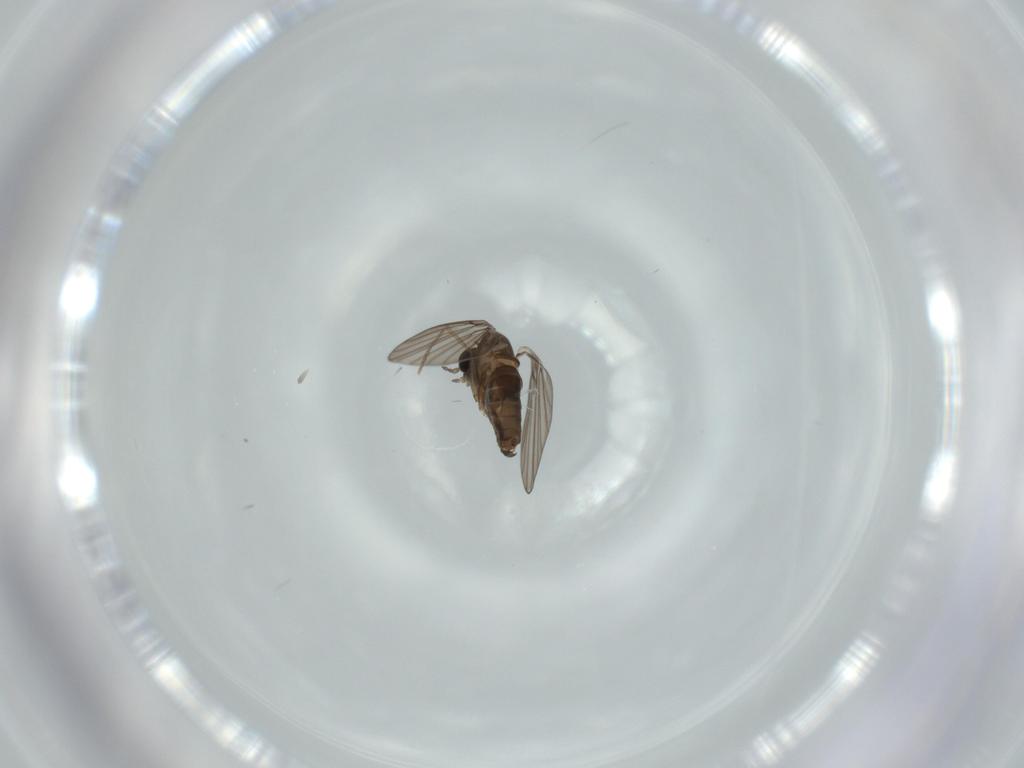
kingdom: Animalia
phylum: Arthropoda
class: Insecta
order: Diptera
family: Psychodidae
